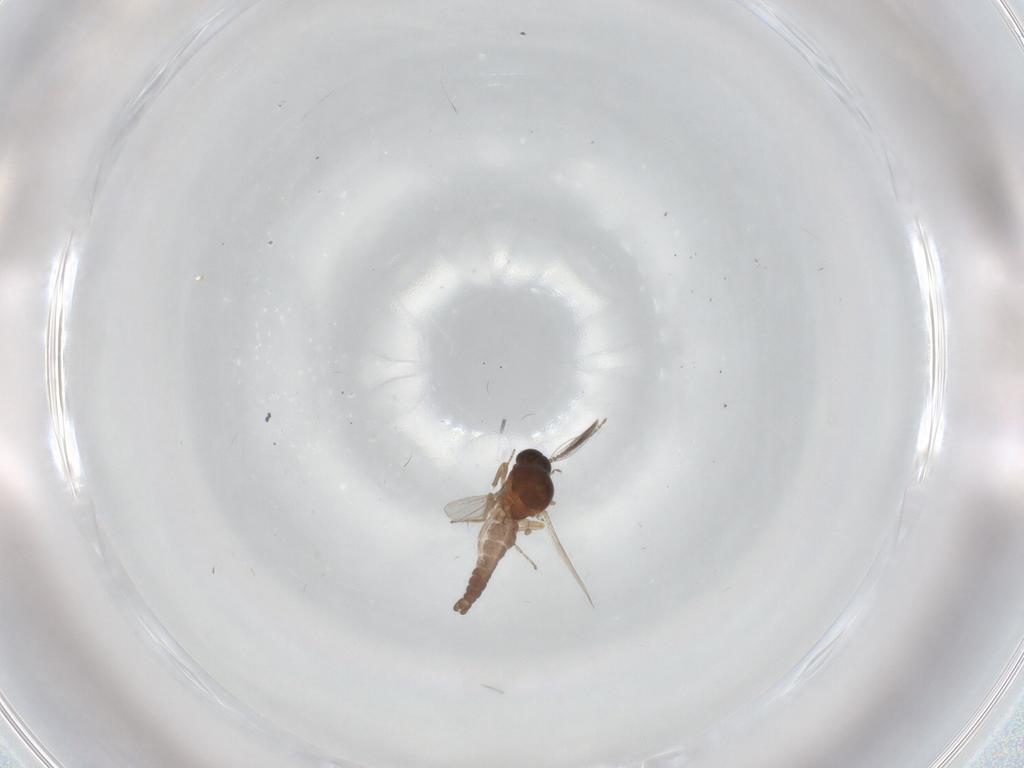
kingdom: Animalia
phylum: Arthropoda
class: Insecta
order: Diptera
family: Ceratopogonidae
